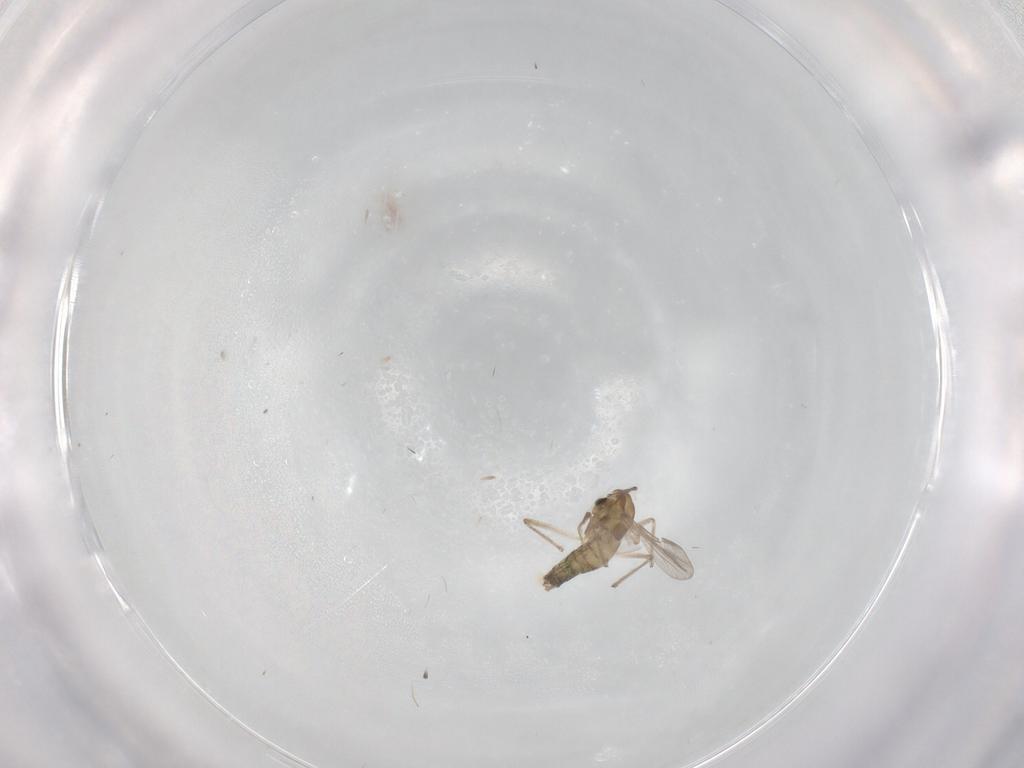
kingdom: Animalia
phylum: Arthropoda
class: Insecta
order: Diptera
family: Chironomidae
